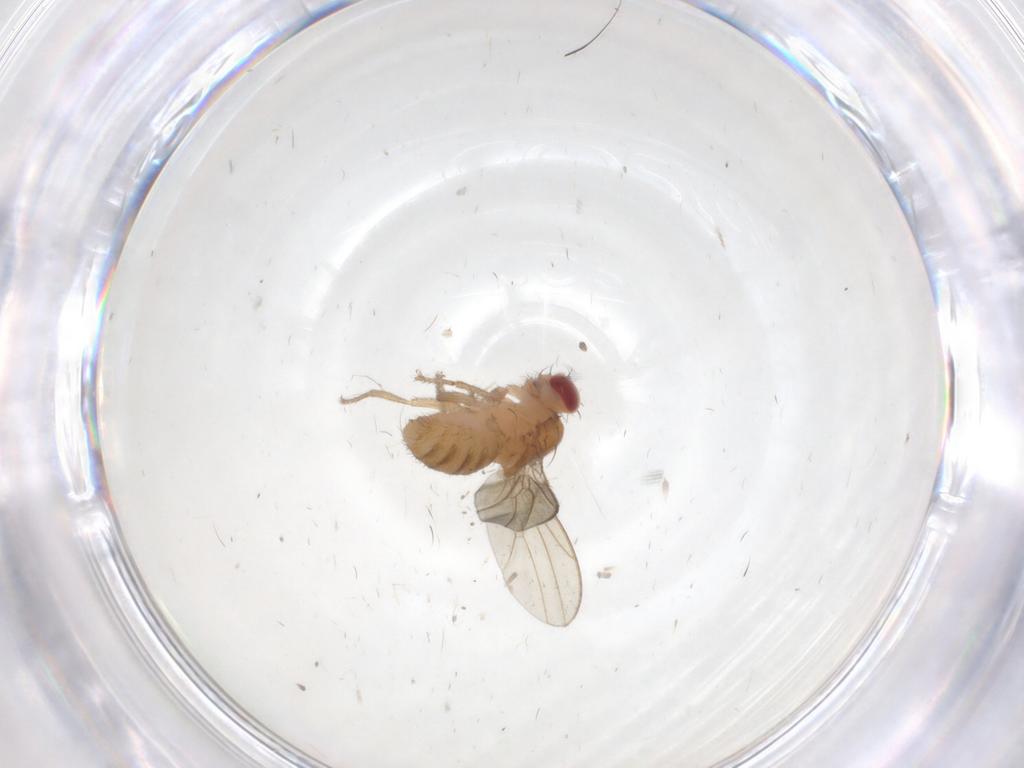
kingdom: Animalia
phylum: Arthropoda
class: Insecta
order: Diptera
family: Drosophilidae
